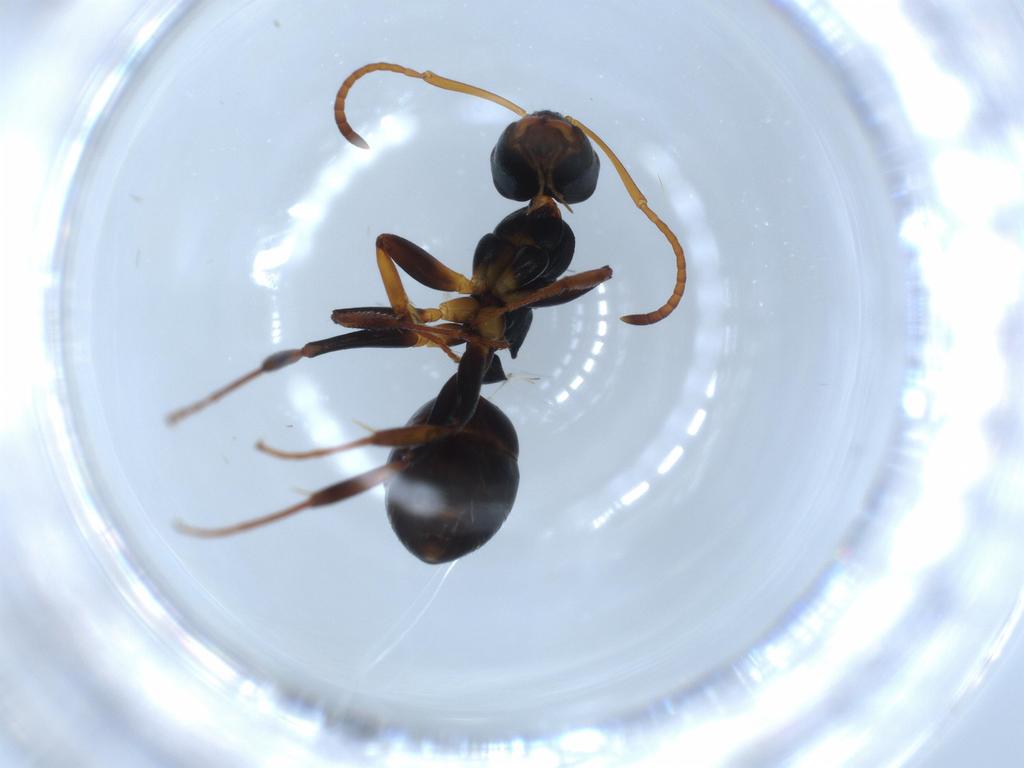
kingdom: Animalia
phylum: Arthropoda
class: Insecta
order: Hymenoptera
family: Formicidae
